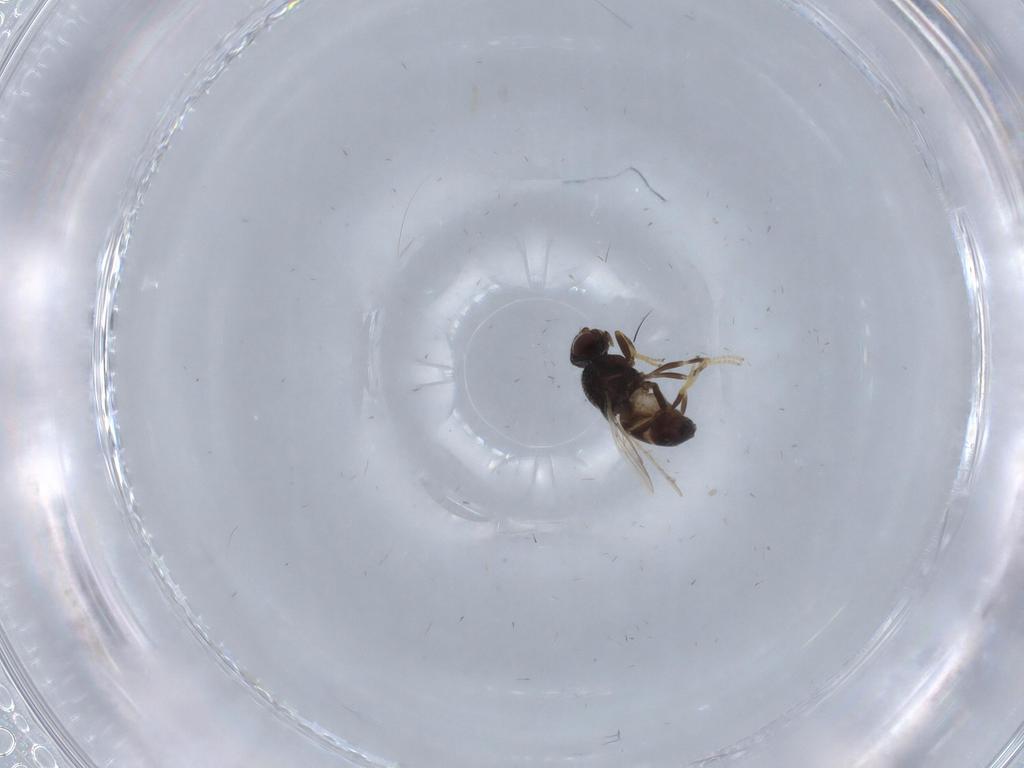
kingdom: Animalia
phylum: Arthropoda
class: Insecta
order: Diptera
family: Chloropidae
